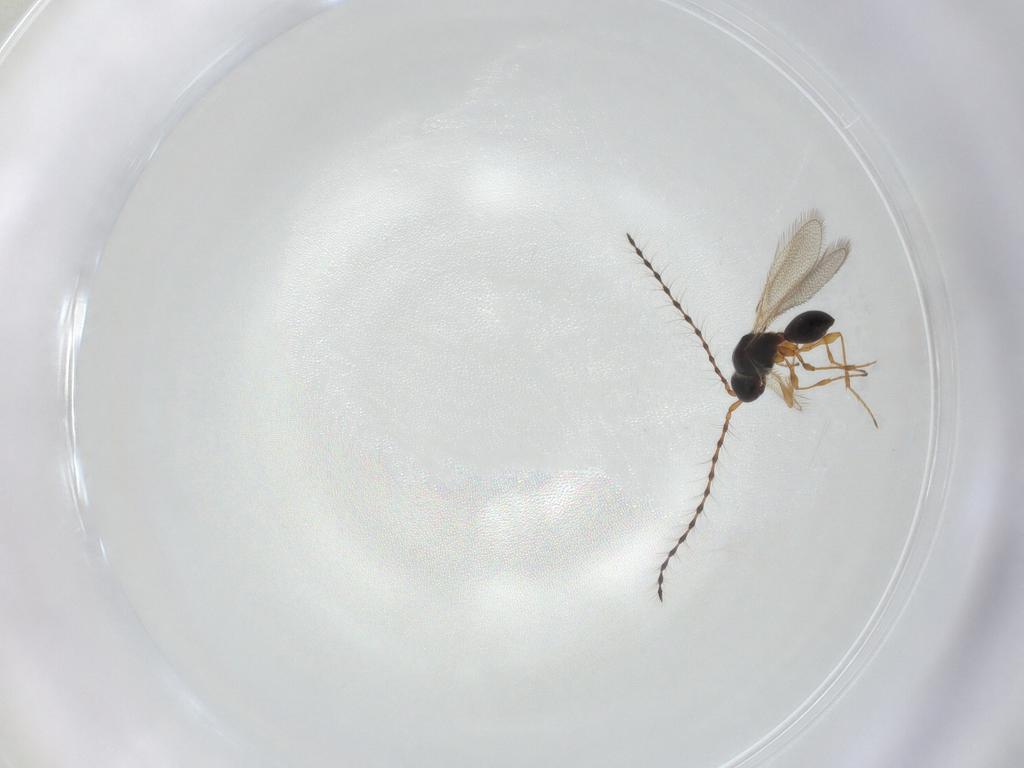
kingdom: Animalia
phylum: Arthropoda
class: Insecta
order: Hymenoptera
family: Diapriidae
